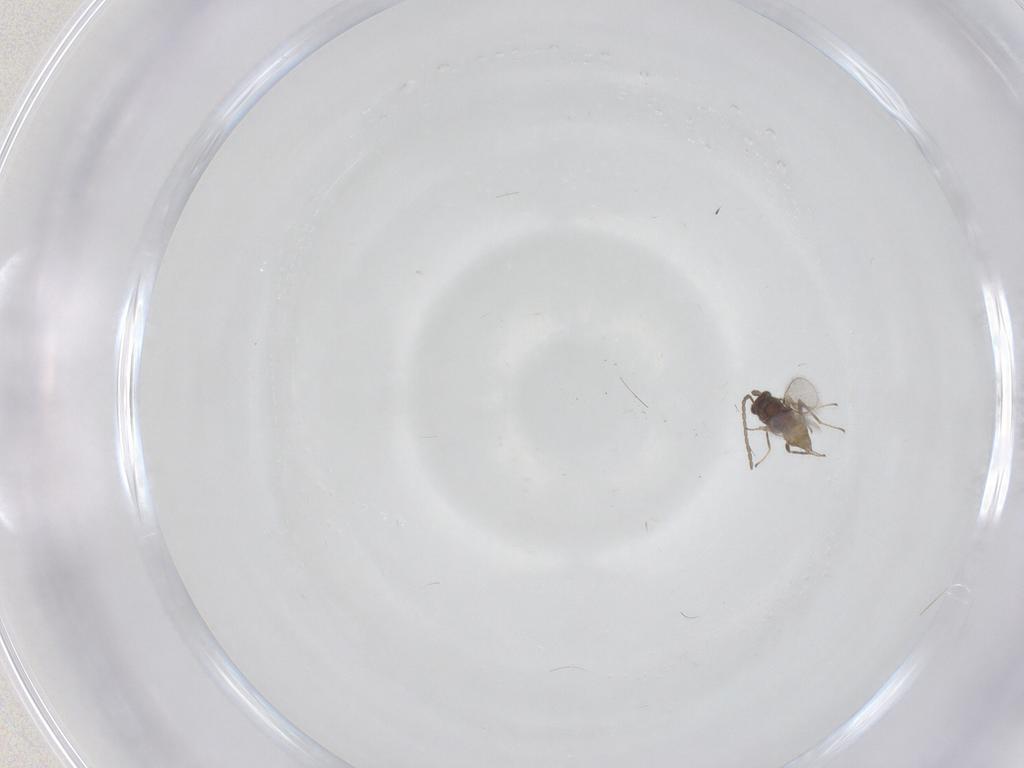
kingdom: Animalia
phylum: Arthropoda
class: Insecta
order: Hymenoptera
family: Mymaridae
